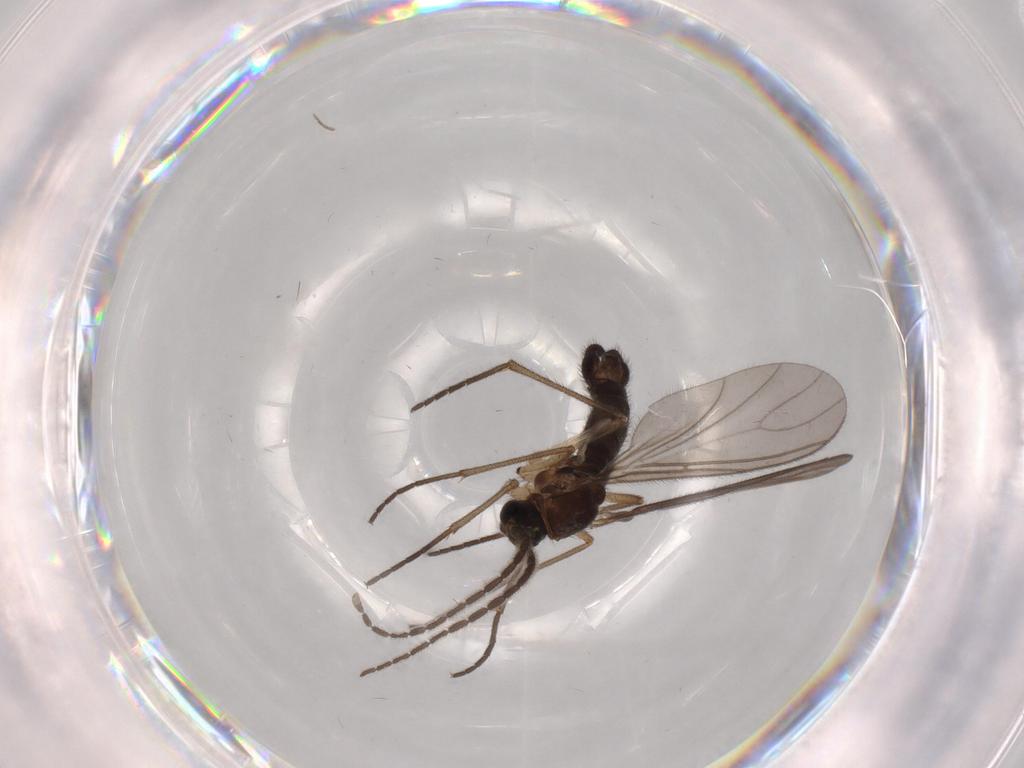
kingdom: Animalia
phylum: Arthropoda
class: Insecta
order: Diptera
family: Sciaridae
